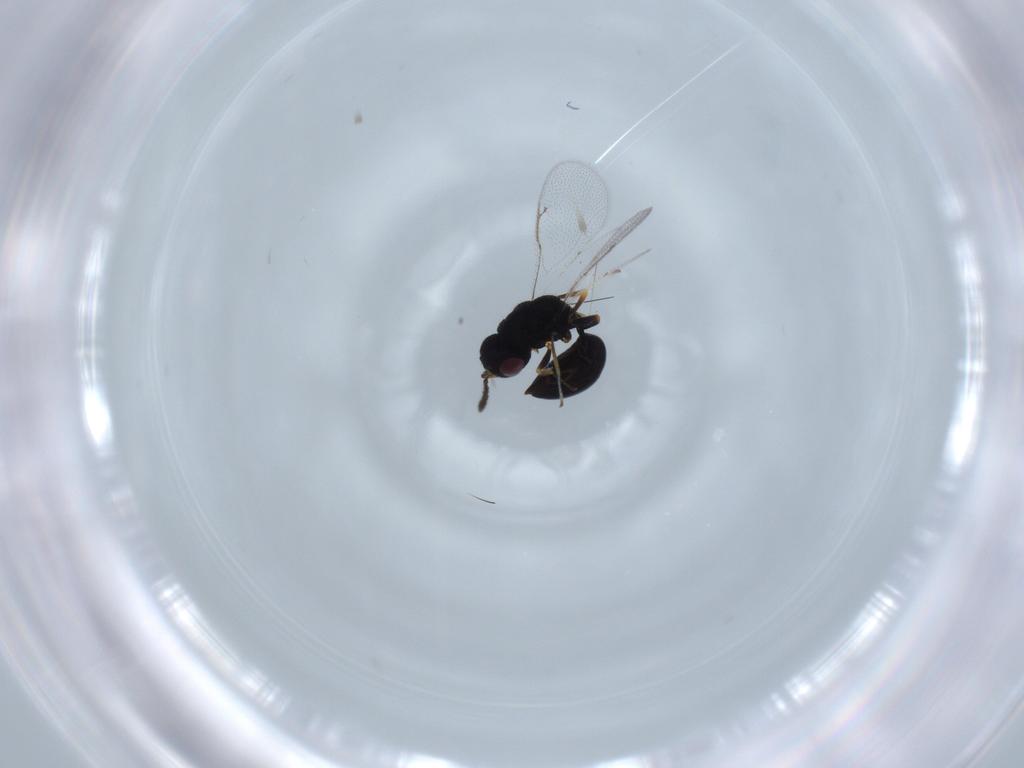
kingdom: Animalia
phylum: Arthropoda
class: Insecta
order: Hymenoptera
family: Eurytomidae
